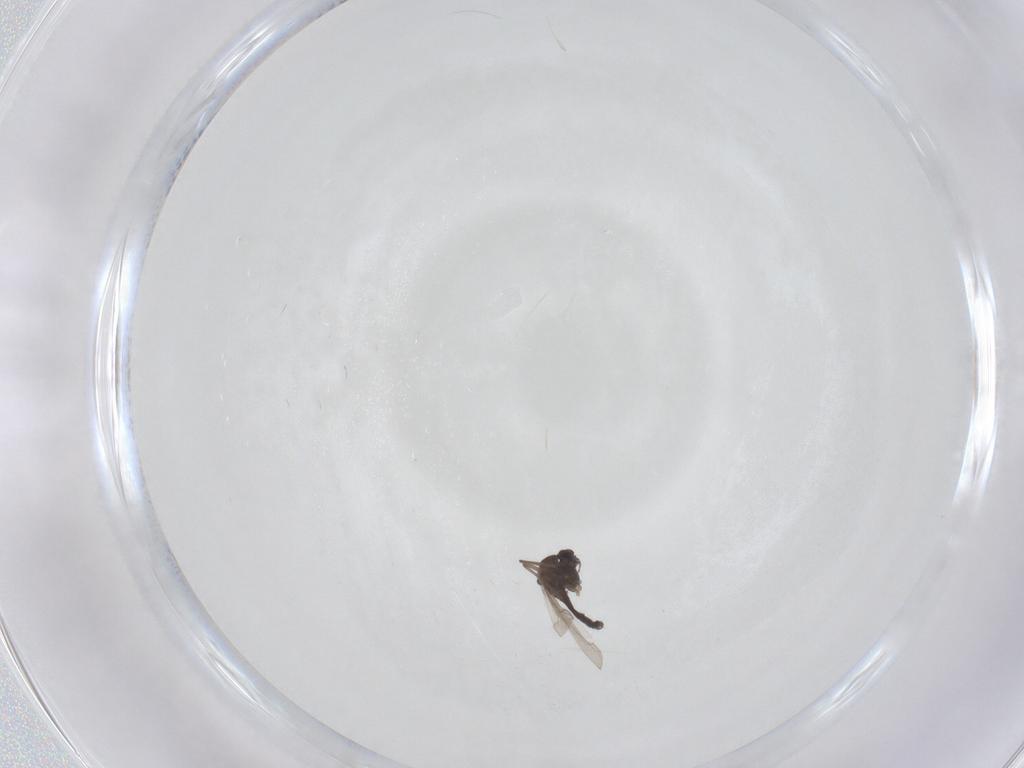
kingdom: Animalia
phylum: Arthropoda
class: Insecta
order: Diptera
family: Chironomidae
